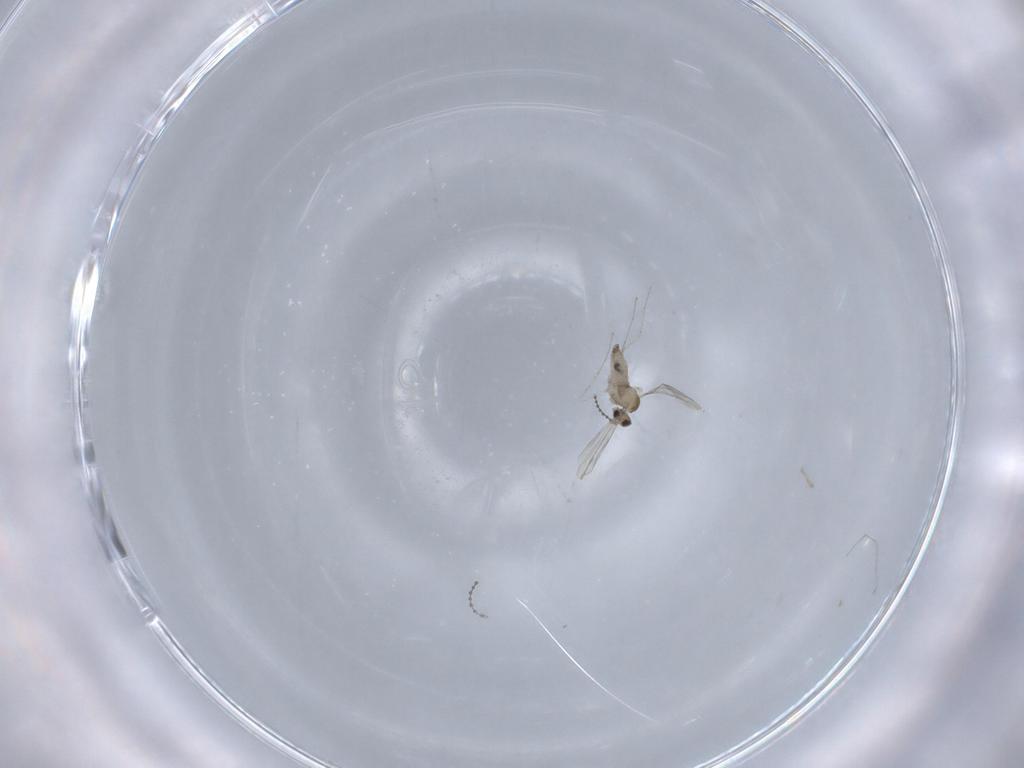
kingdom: Animalia
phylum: Arthropoda
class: Insecta
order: Diptera
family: Cecidomyiidae
